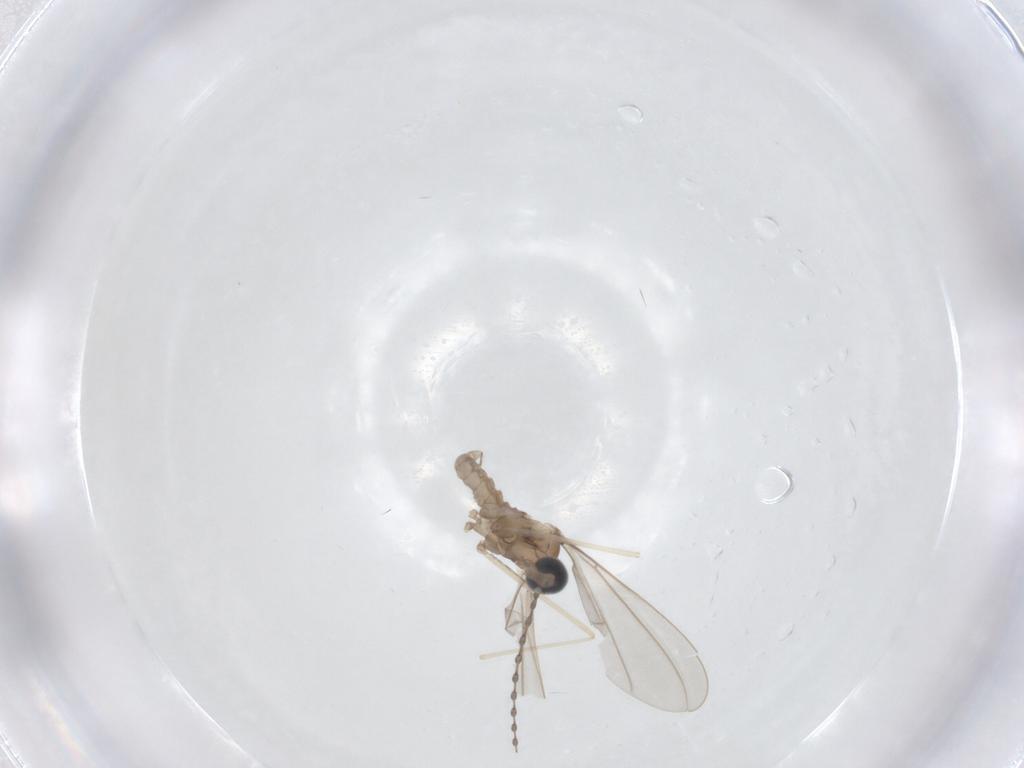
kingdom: Animalia
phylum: Arthropoda
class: Insecta
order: Diptera
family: Cecidomyiidae
